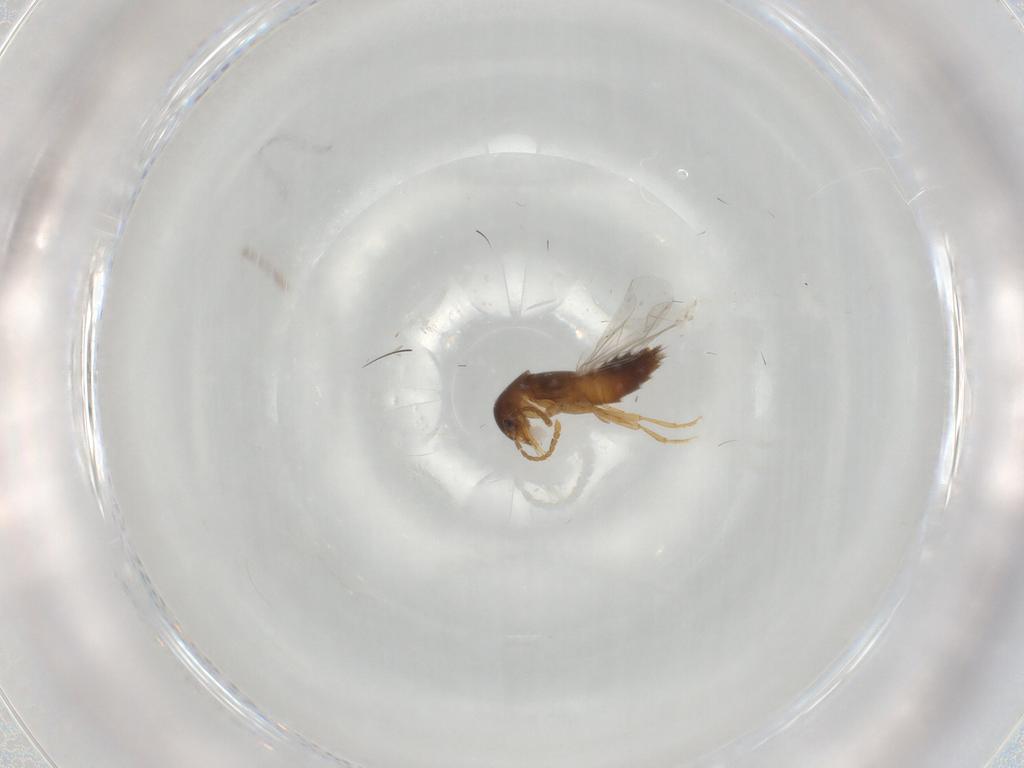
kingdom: Animalia
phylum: Arthropoda
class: Insecta
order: Coleoptera
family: Staphylinidae
